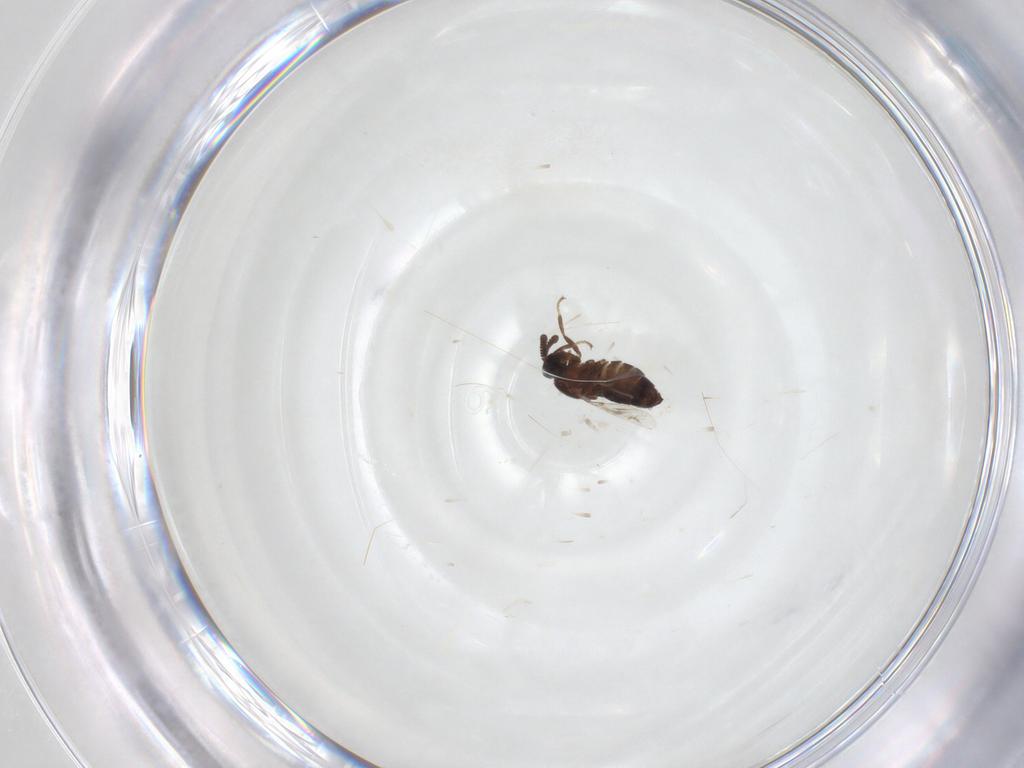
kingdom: Animalia
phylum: Arthropoda
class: Insecta
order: Diptera
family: Scatopsidae
